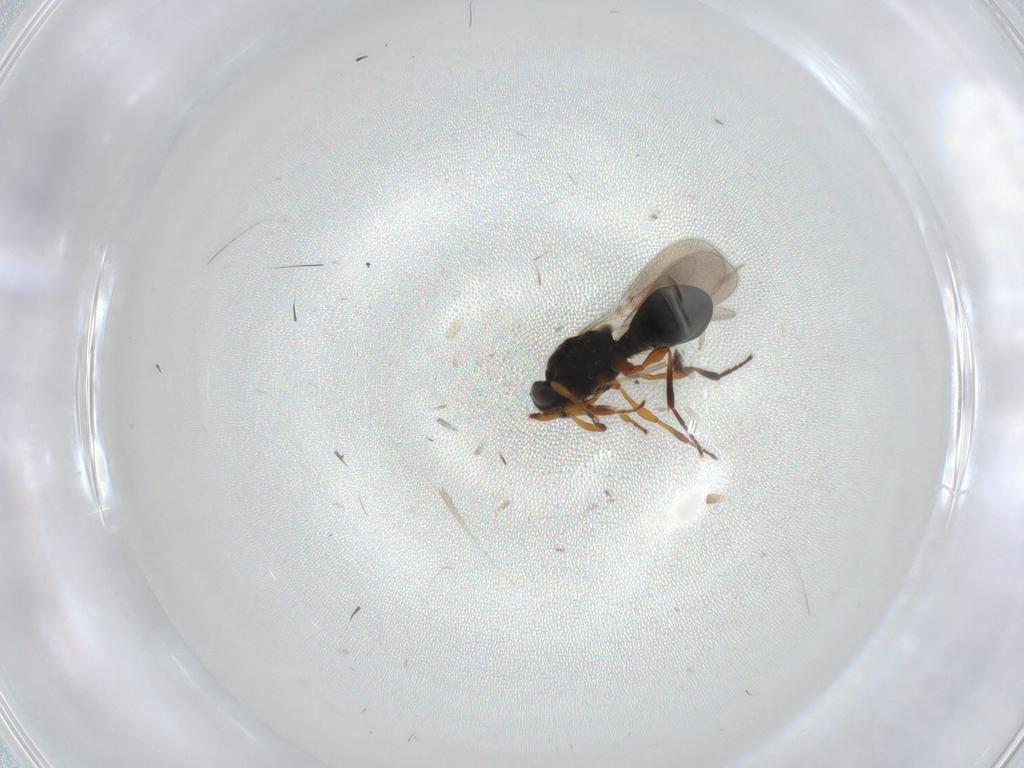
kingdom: Animalia
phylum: Arthropoda
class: Insecta
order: Hymenoptera
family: Platygastridae
